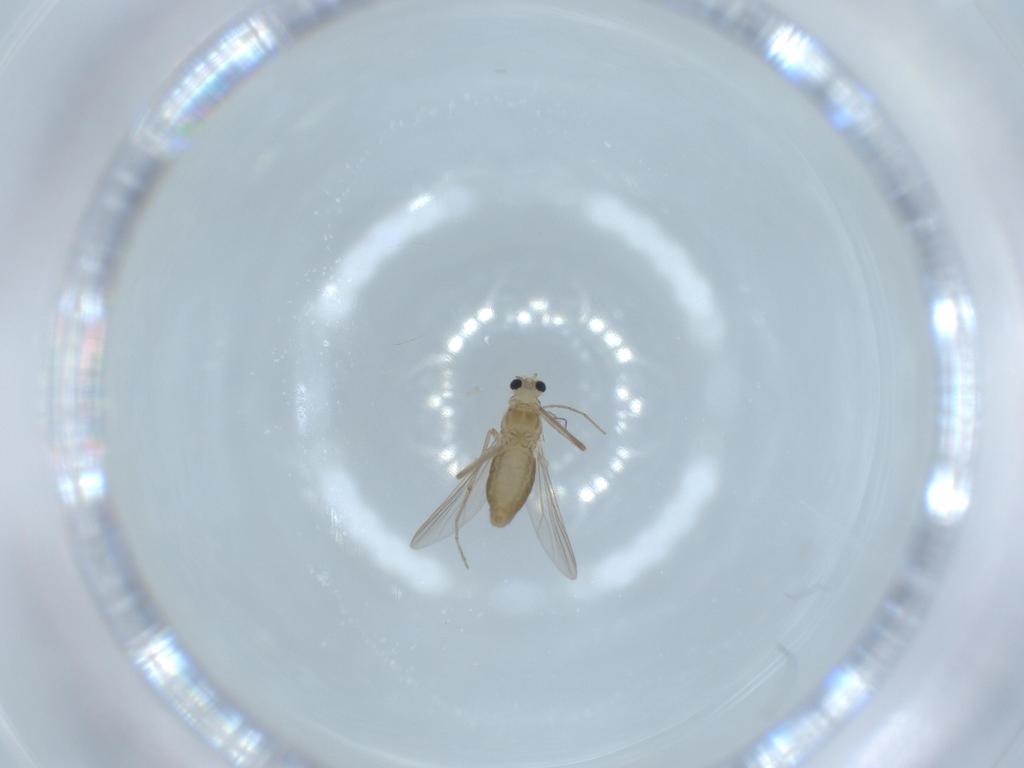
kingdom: Animalia
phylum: Arthropoda
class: Insecta
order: Diptera
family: Chironomidae
